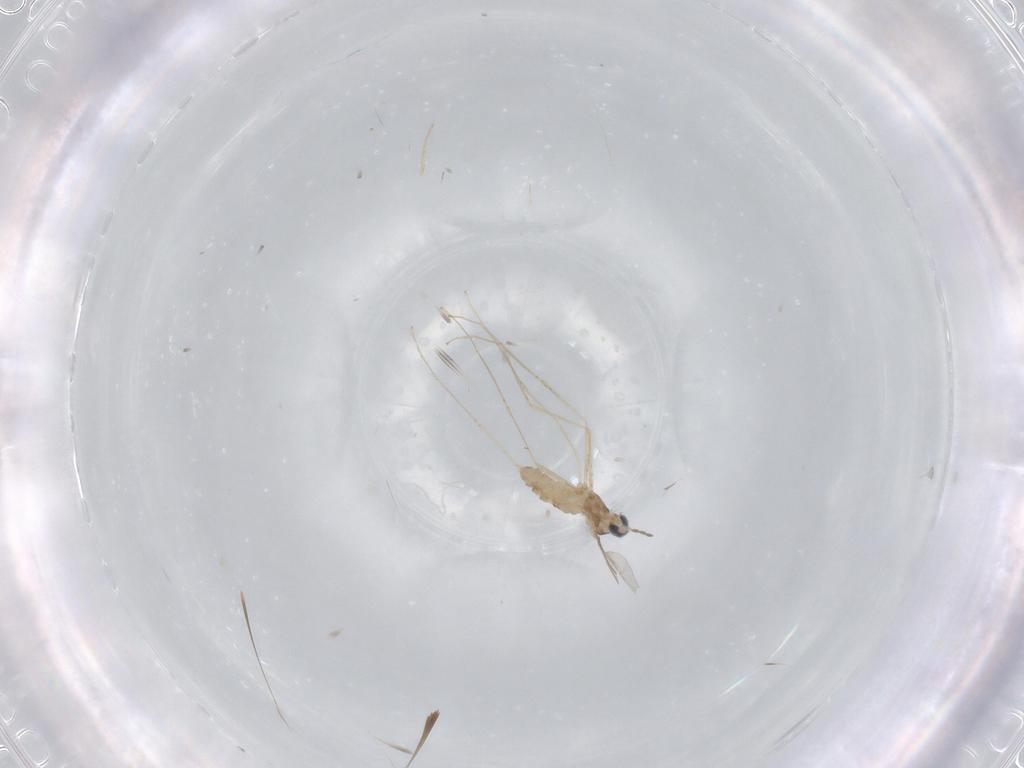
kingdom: Animalia
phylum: Arthropoda
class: Insecta
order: Diptera
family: Cecidomyiidae
